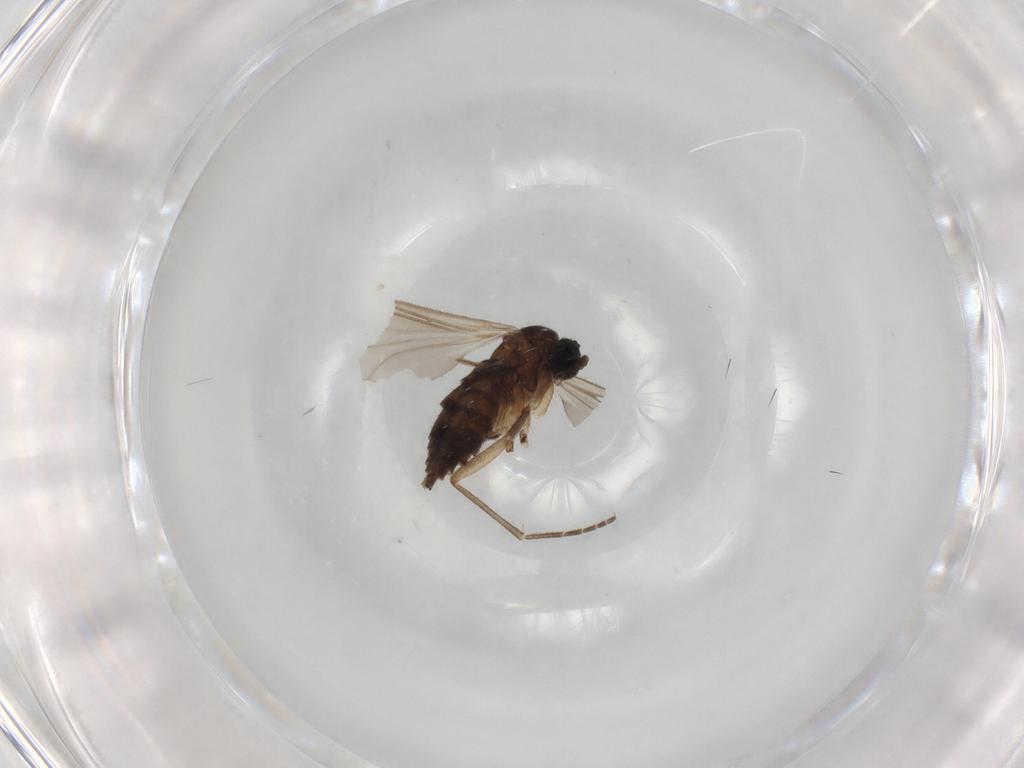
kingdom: Animalia
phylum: Arthropoda
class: Insecta
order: Diptera
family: Sciaridae
